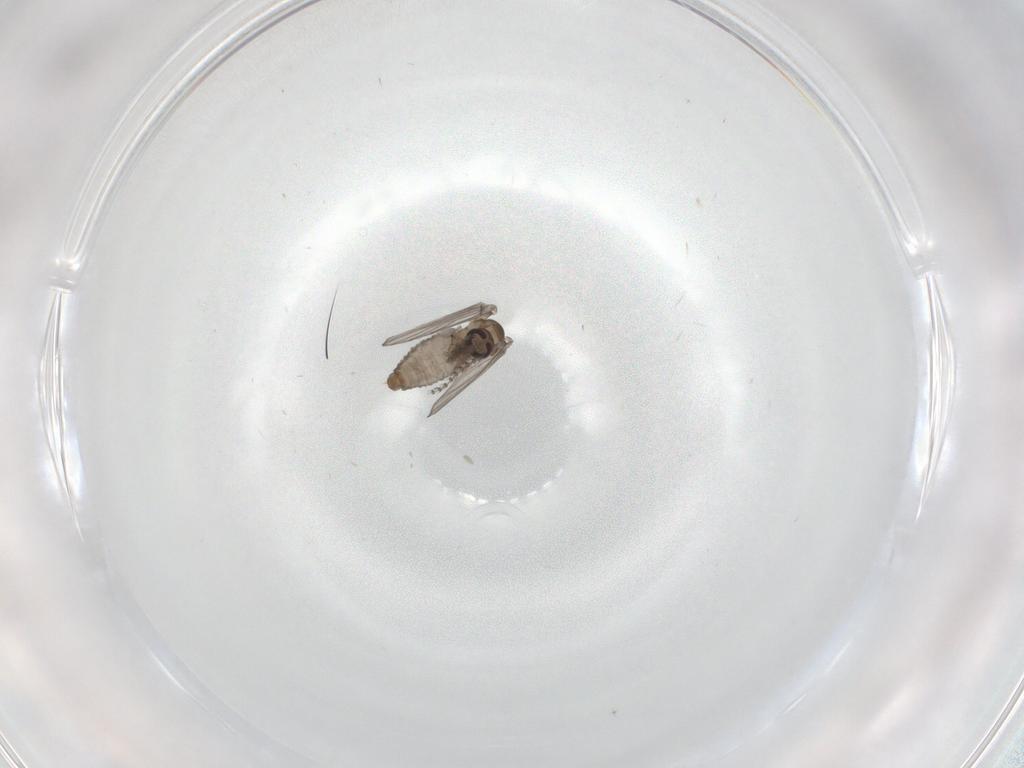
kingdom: Animalia
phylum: Arthropoda
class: Insecta
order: Diptera
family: Psychodidae
